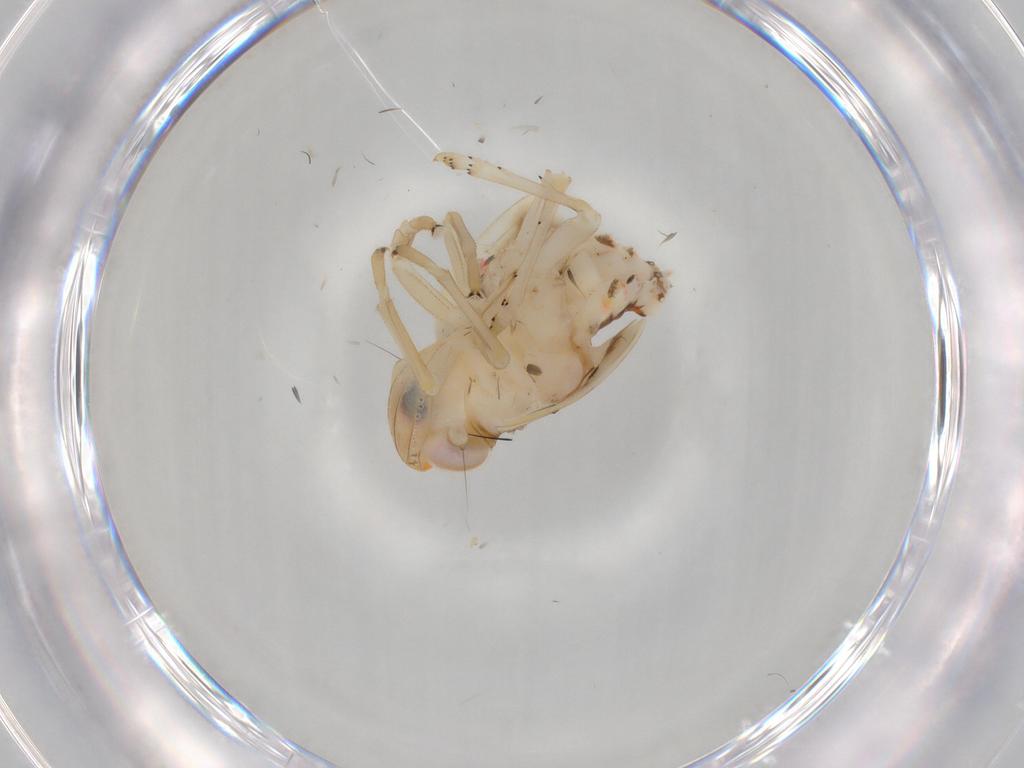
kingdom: Animalia
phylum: Arthropoda
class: Insecta
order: Hemiptera
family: Nogodinidae
